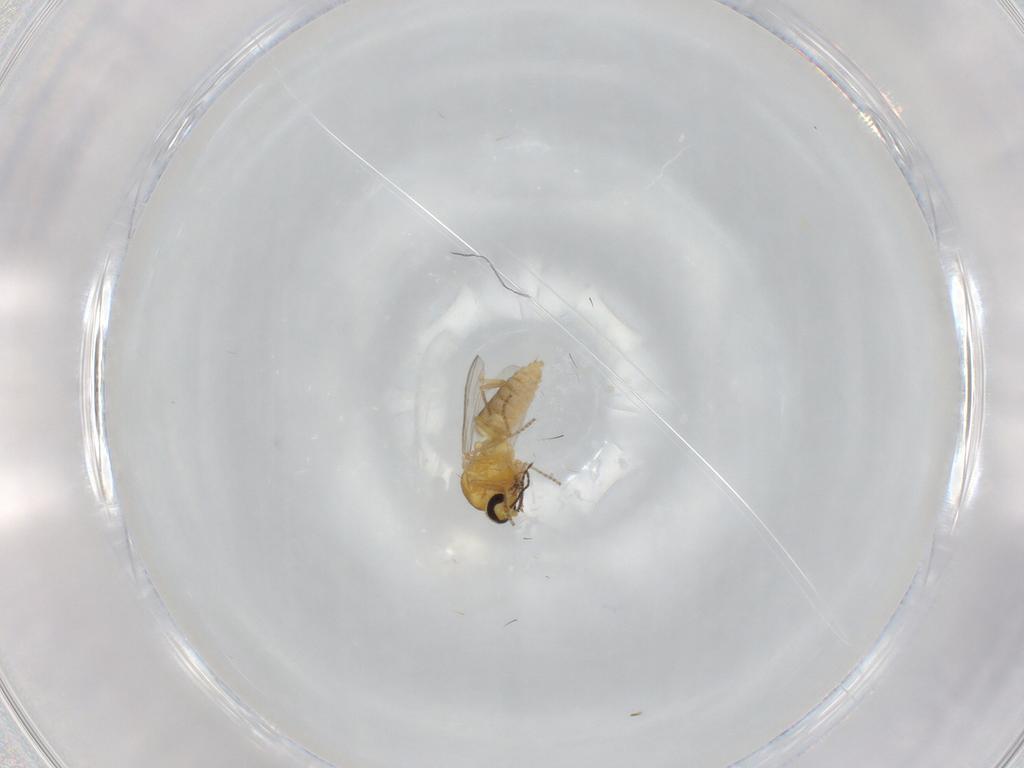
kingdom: Animalia
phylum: Arthropoda
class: Insecta
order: Diptera
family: Ceratopogonidae
